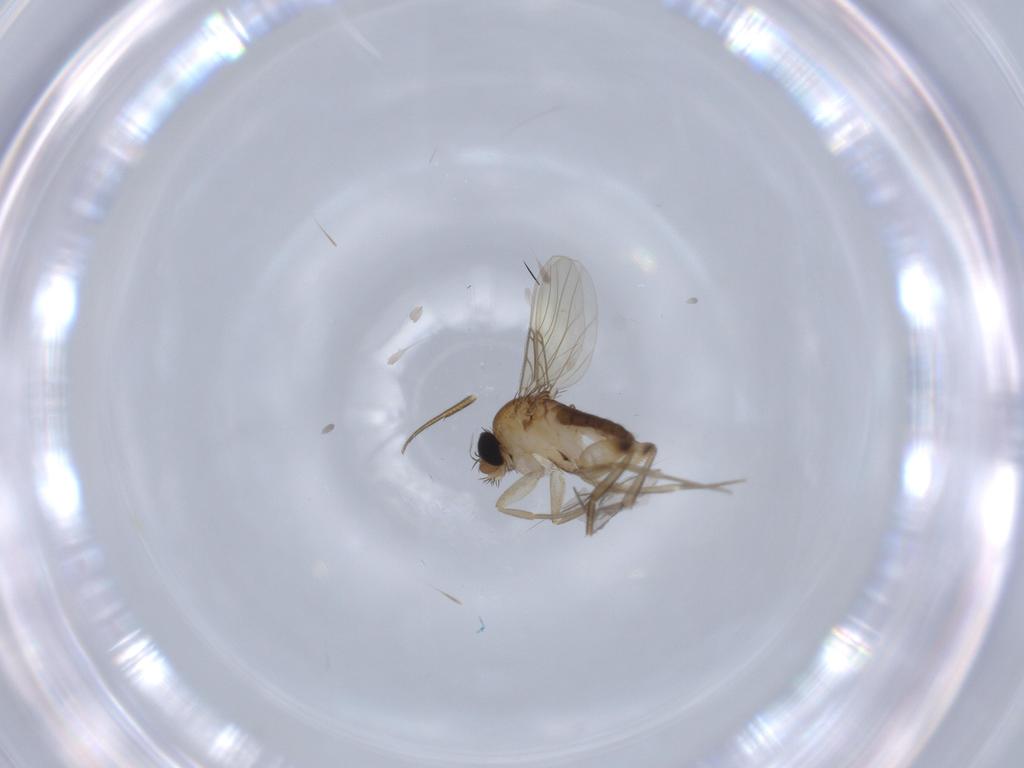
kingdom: Animalia
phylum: Arthropoda
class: Insecta
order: Diptera
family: Phoridae
